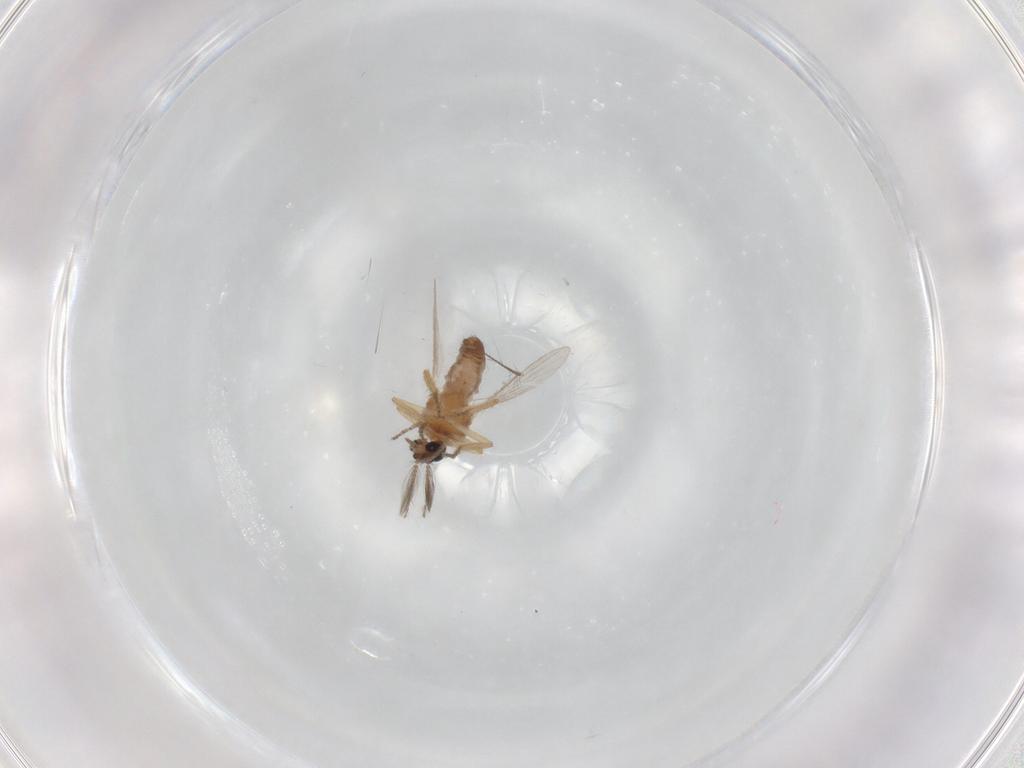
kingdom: Animalia
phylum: Arthropoda
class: Insecta
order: Diptera
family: Ceratopogonidae
